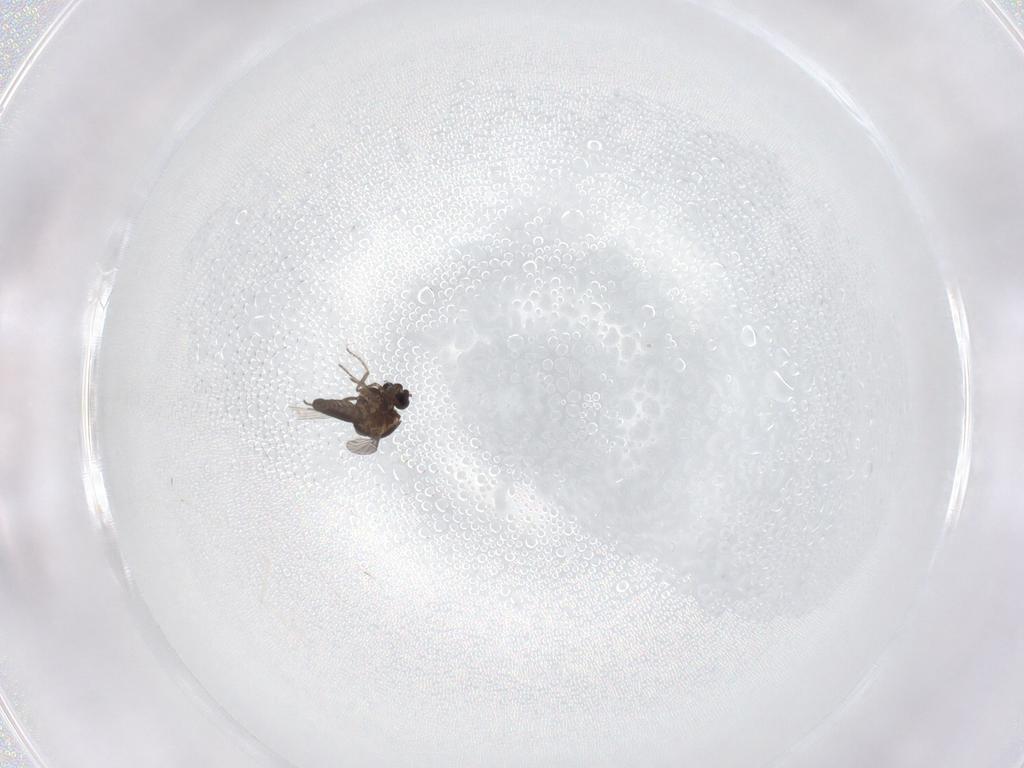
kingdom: Animalia
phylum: Arthropoda
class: Insecta
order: Diptera
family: Ceratopogonidae
